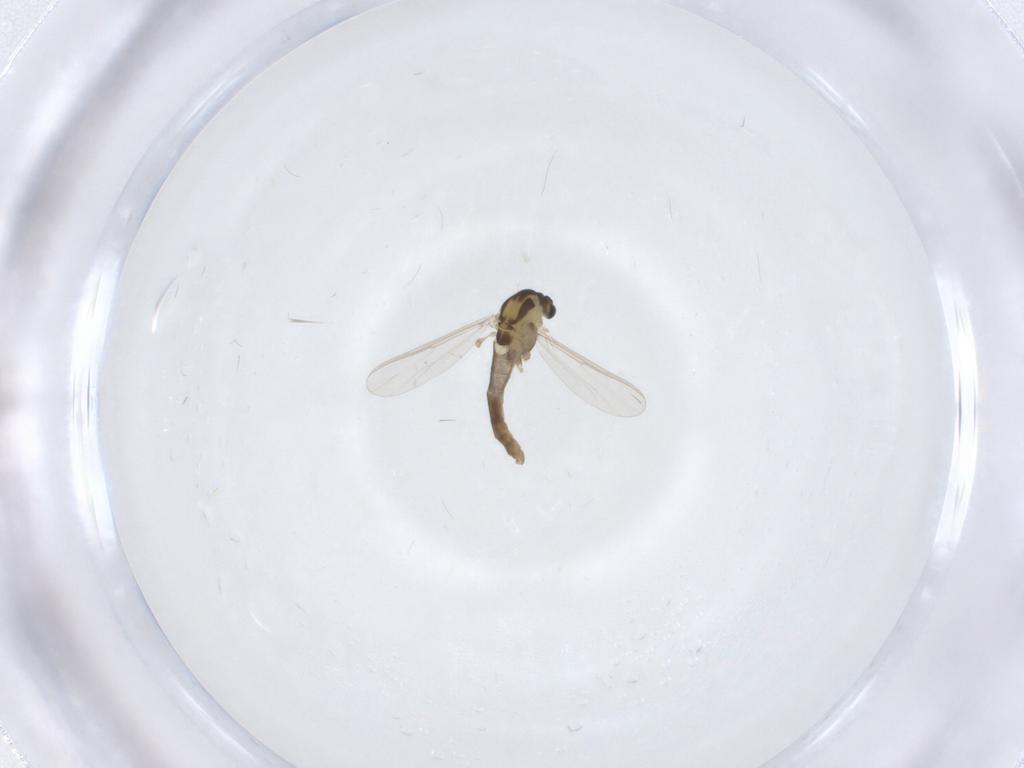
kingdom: Animalia
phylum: Arthropoda
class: Insecta
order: Diptera
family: Chironomidae
